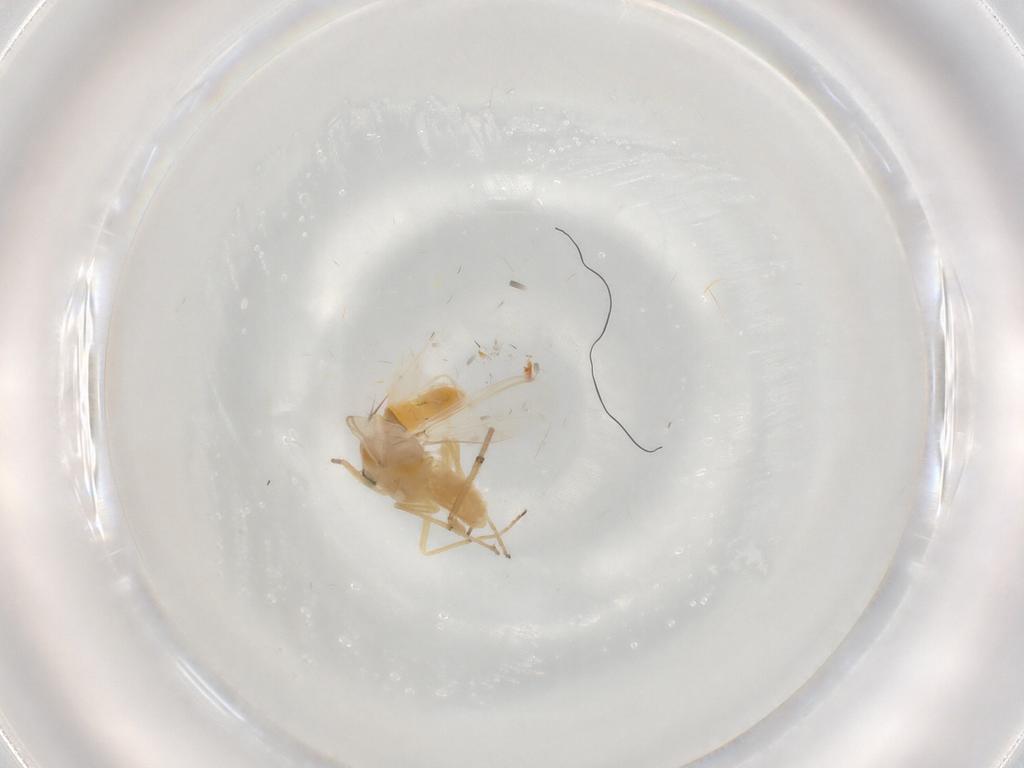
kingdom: Animalia
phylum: Arthropoda
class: Insecta
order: Diptera
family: Chironomidae
